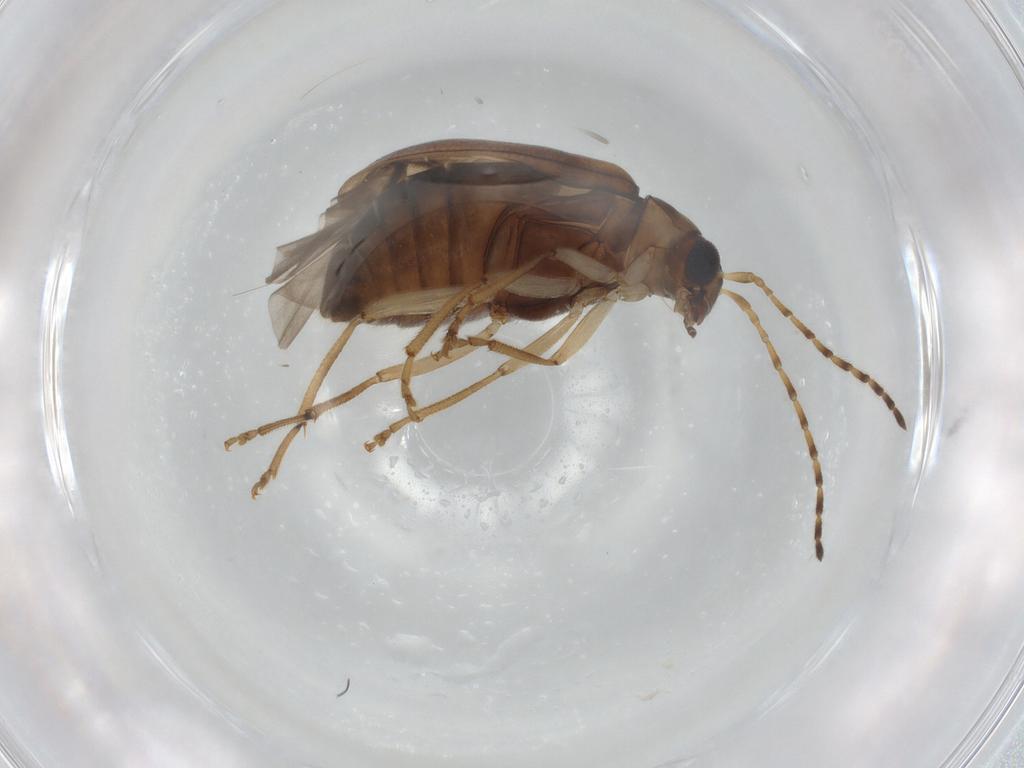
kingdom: Animalia
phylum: Arthropoda
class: Insecta
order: Coleoptera
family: Chrysomelidae
